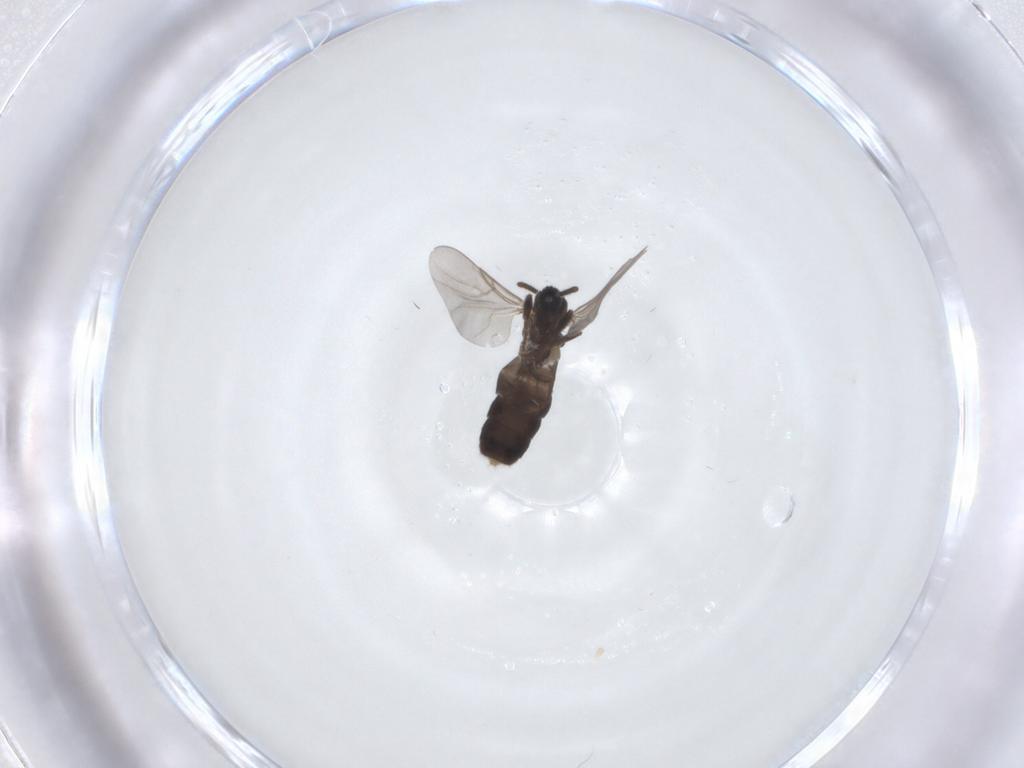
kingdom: Animalia
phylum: Arthropoda
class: Insecta
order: Diptera
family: Scatopsidae
